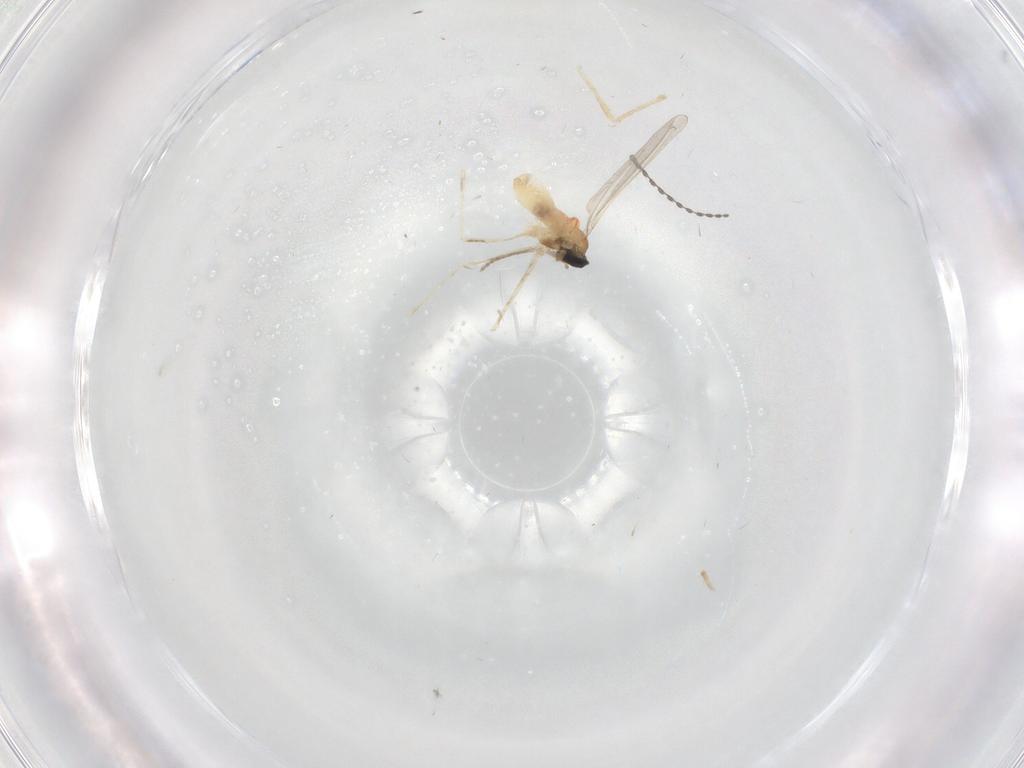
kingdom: Animalia
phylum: Arthropoda
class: Insecta
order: Diptera
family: Cecidomyiidae
